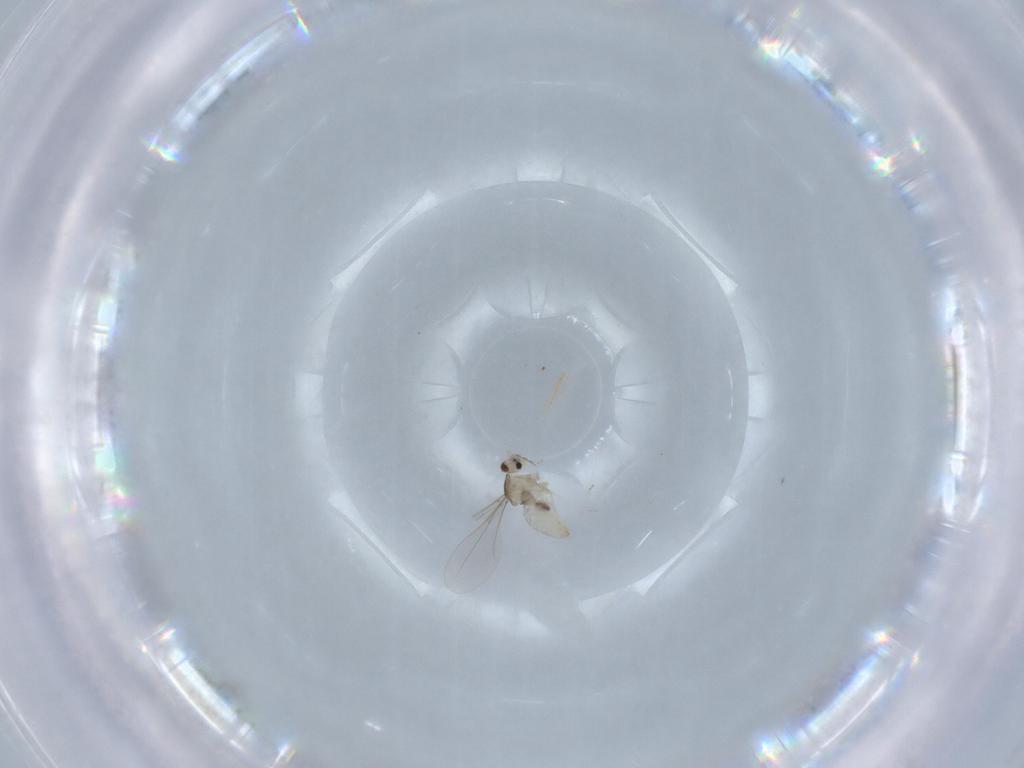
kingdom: Animalia
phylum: Arthropoda
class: Insecta
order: Diptera
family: Cecidomyiidae
